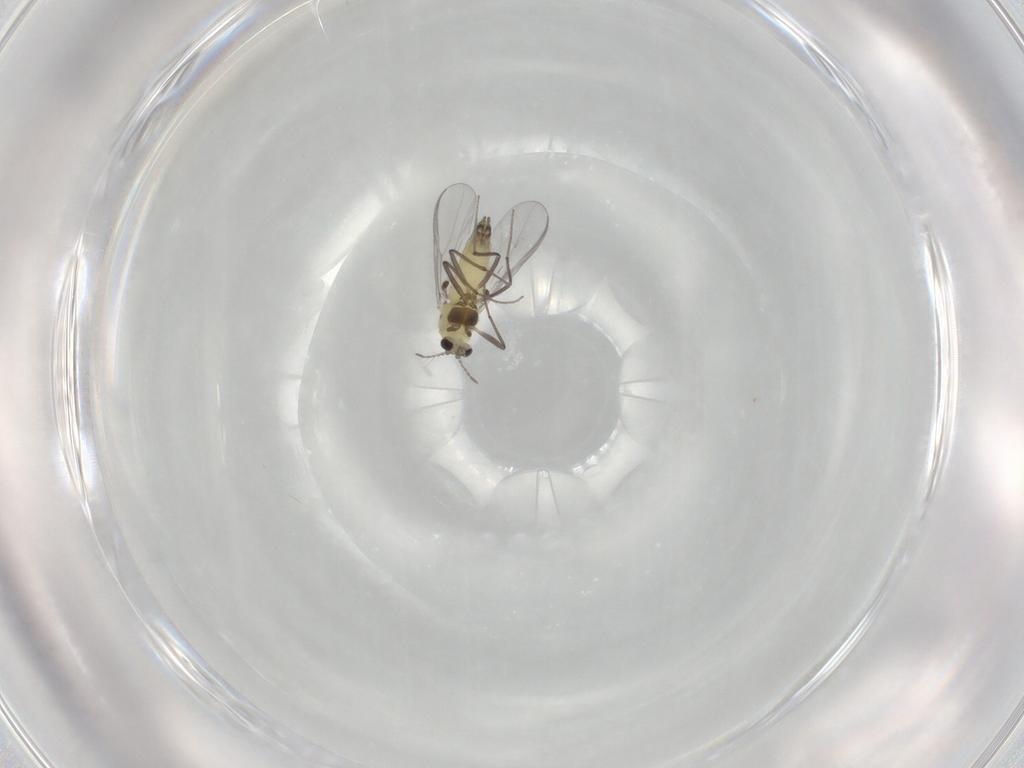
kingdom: Animalia
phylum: Arthropoda
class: Insecta
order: Diptera
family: Chironomidae
